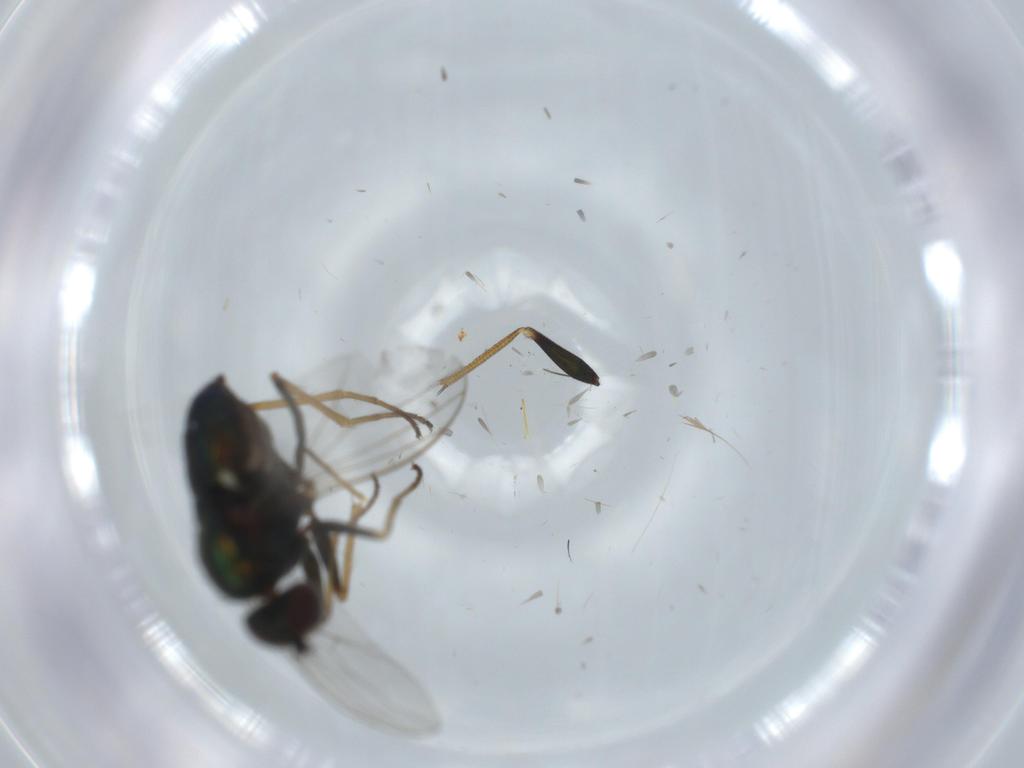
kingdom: Animalia
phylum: Arthropoda
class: Insecta
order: Diptera
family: Dolichopodidae
